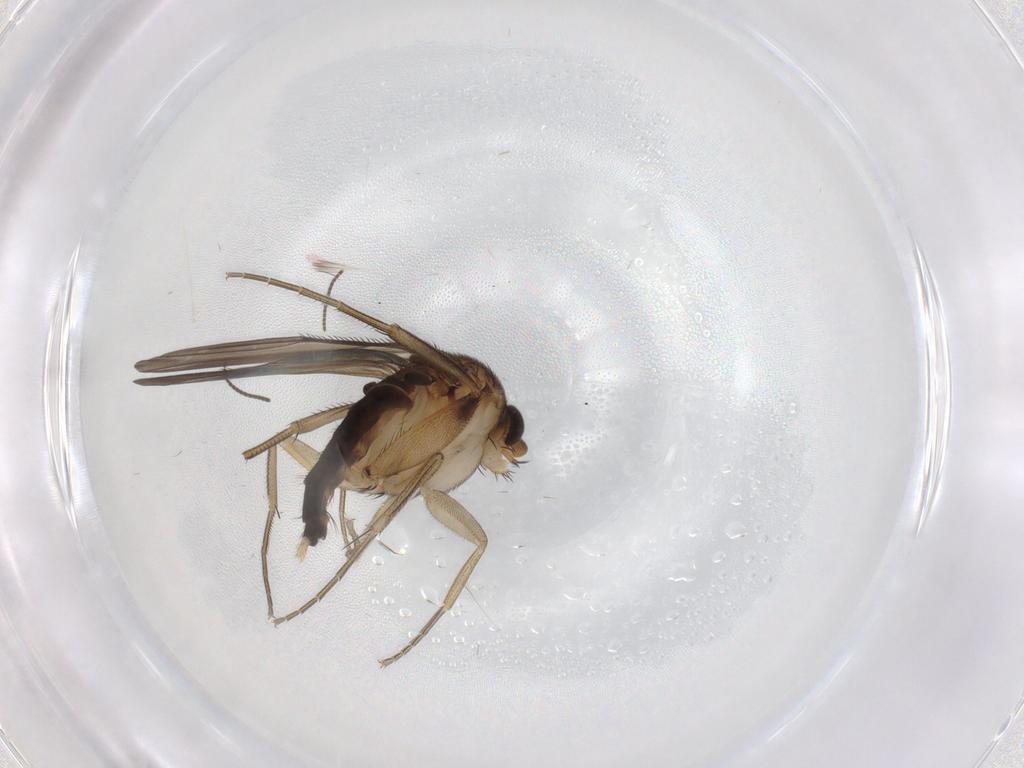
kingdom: Animalia
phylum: Arthropoda
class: Insecta
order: Diptera
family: Phoridae
